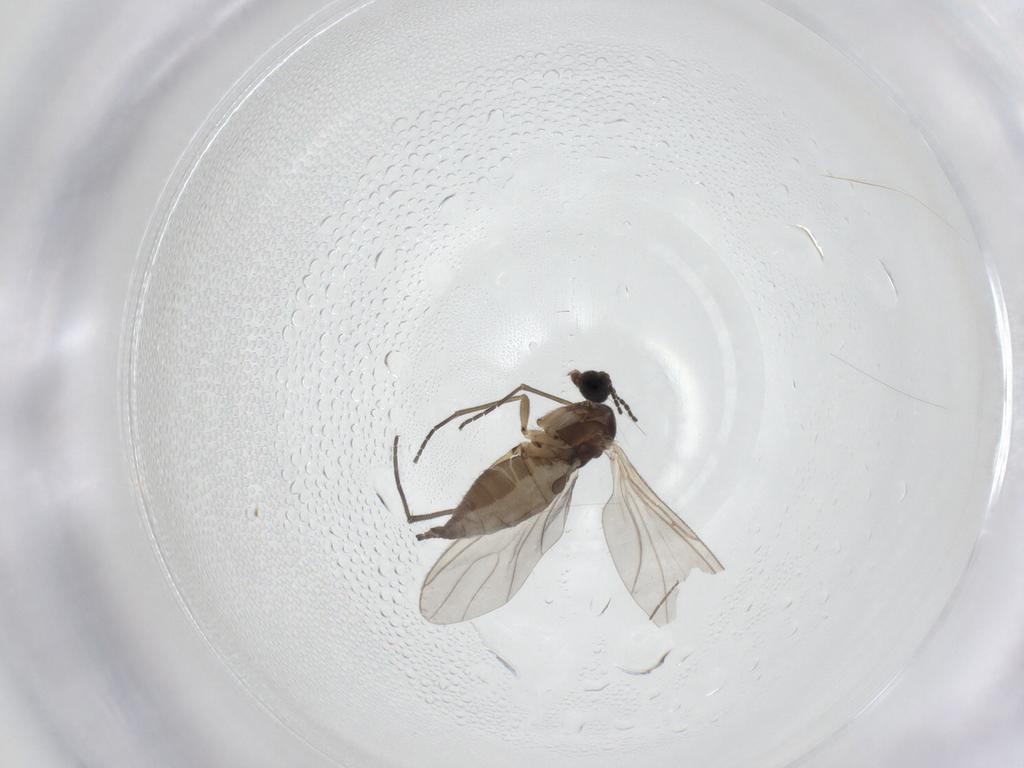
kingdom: Animalia
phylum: Arthropoda
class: Insecta
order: Diptera
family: Sciaridae
